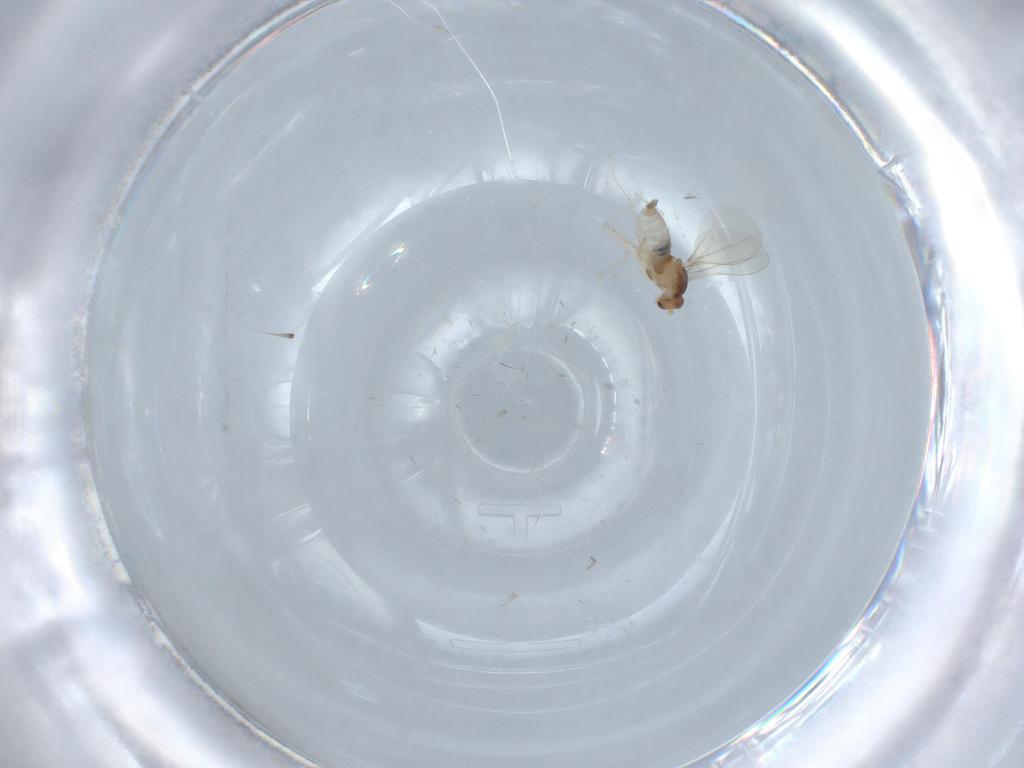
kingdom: Animalia
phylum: Arthropoda
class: Insecta
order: Diptera
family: Cecidomyiidae
